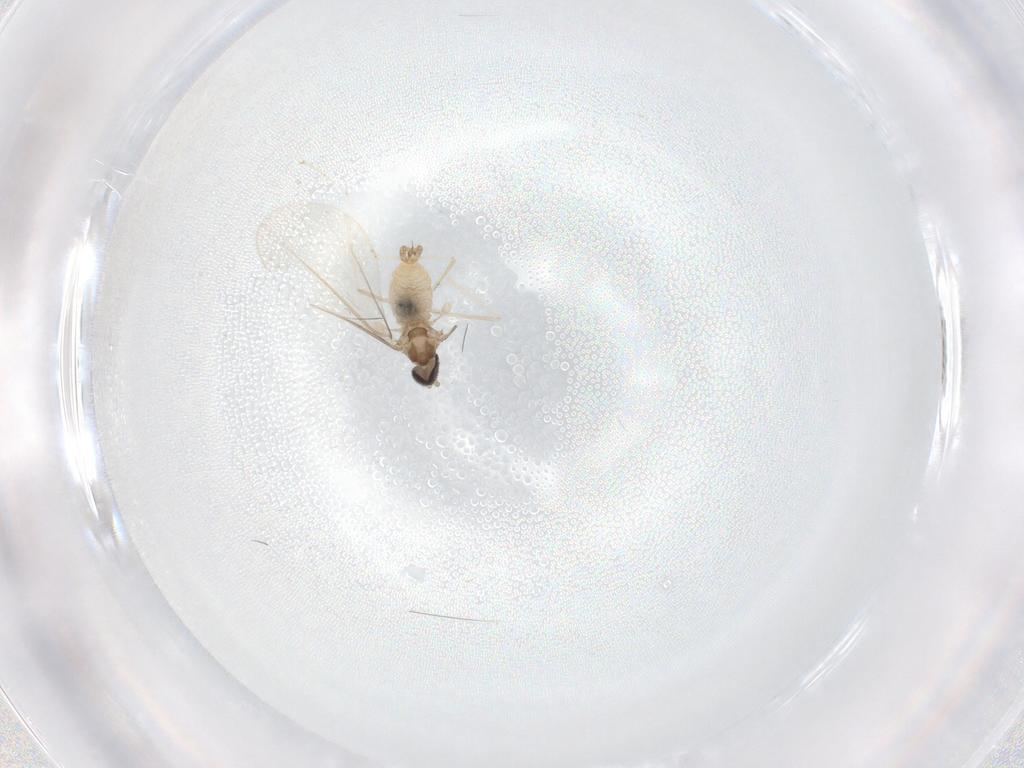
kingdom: Animalia
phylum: Arthropoda
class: Insecta
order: Diptera
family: Cecidomyiidae
